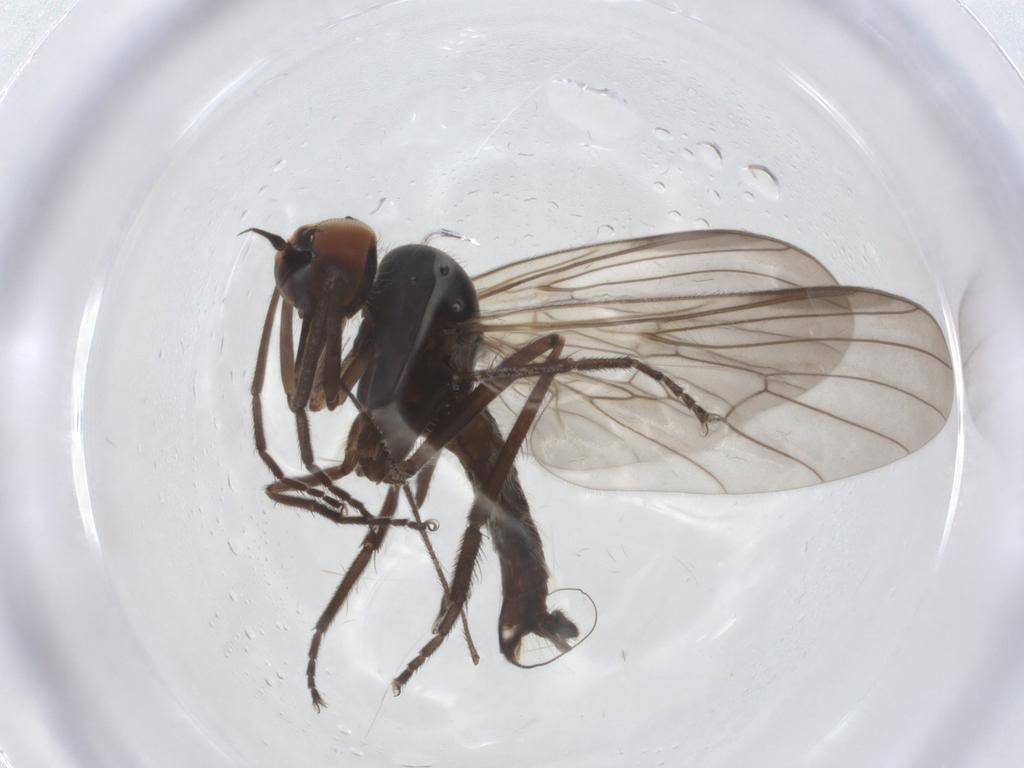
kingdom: Animalia
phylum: Arthropoda
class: Insecta
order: Diptera
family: Empididae
